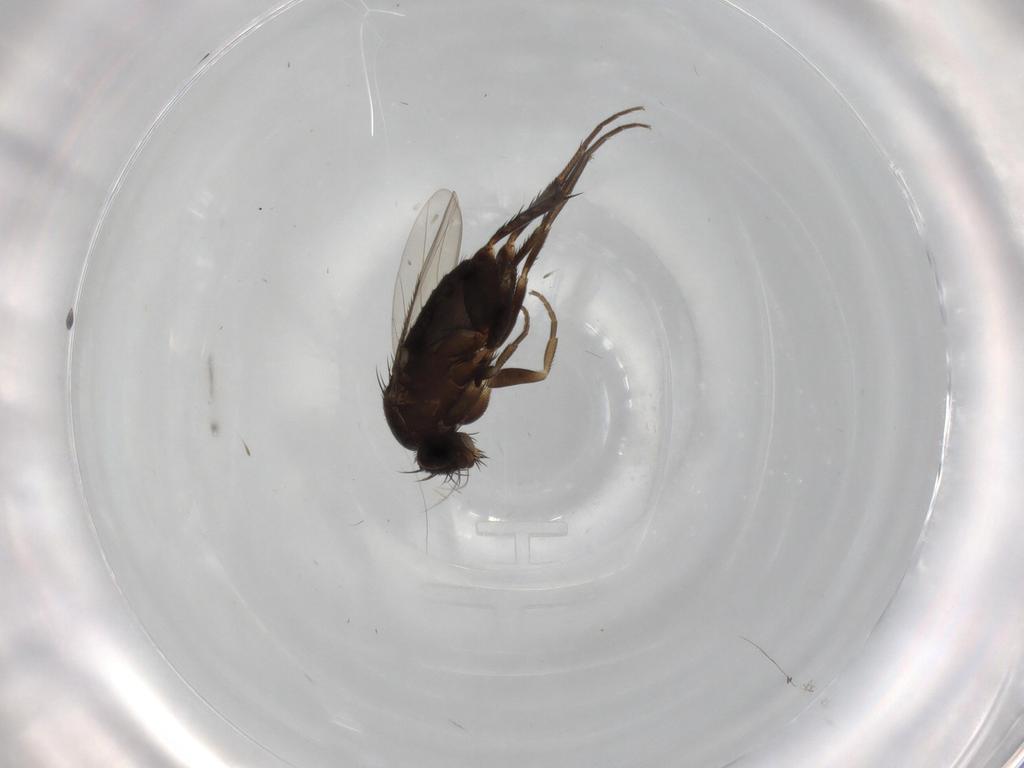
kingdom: Animalia
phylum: Arthropoda
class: Insecta
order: Diptera
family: Phoridae
